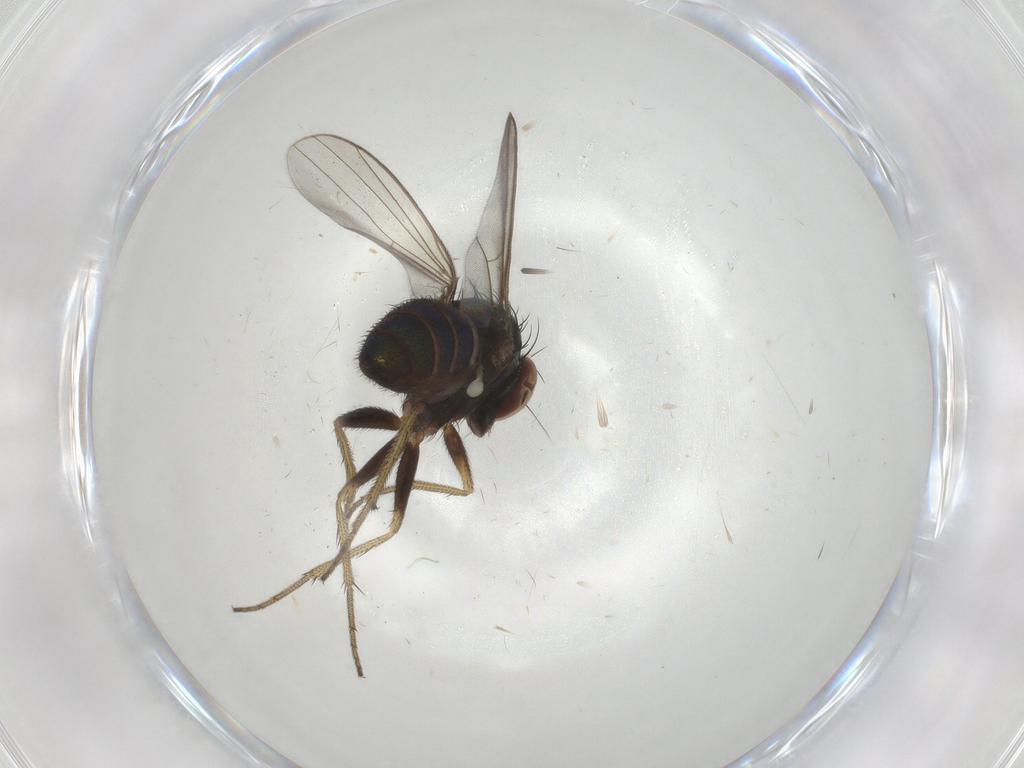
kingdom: Animalia
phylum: Arthropoda
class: Insecta
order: Diptera
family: Dolichopodidae
